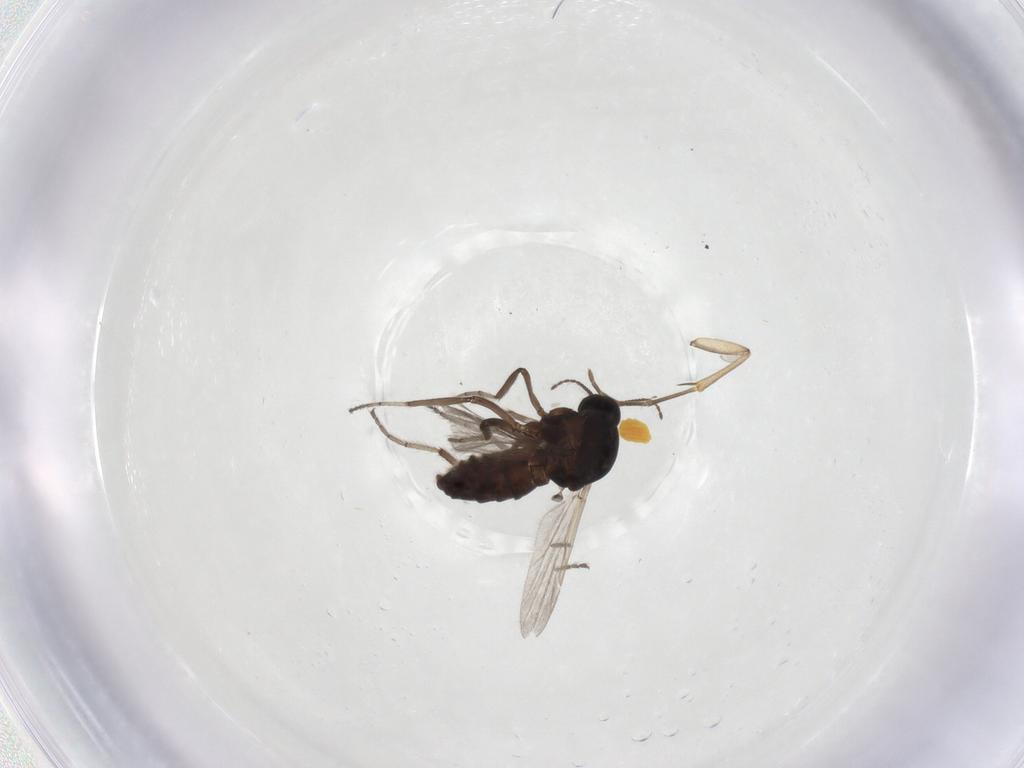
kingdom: Animalia
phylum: Arthropoda
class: Insecta
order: Diptera
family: Ceratopogonidae
